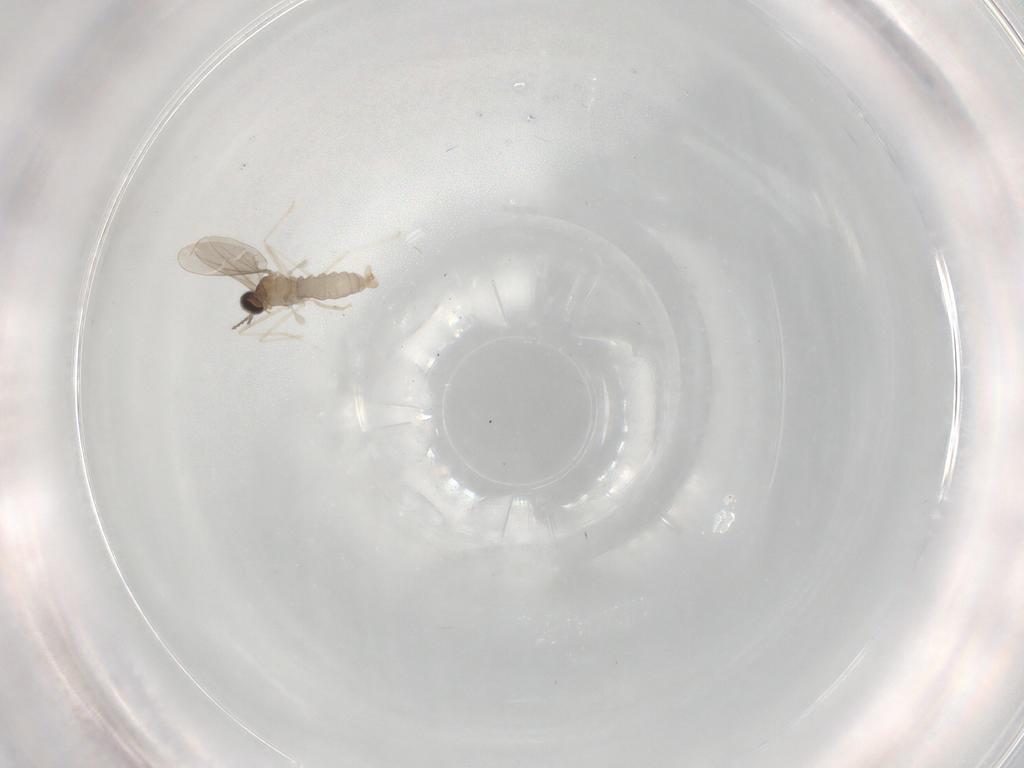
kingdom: Animalia
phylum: Arthropoda
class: Insecta
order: Diptera
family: Cecidomyiidae
